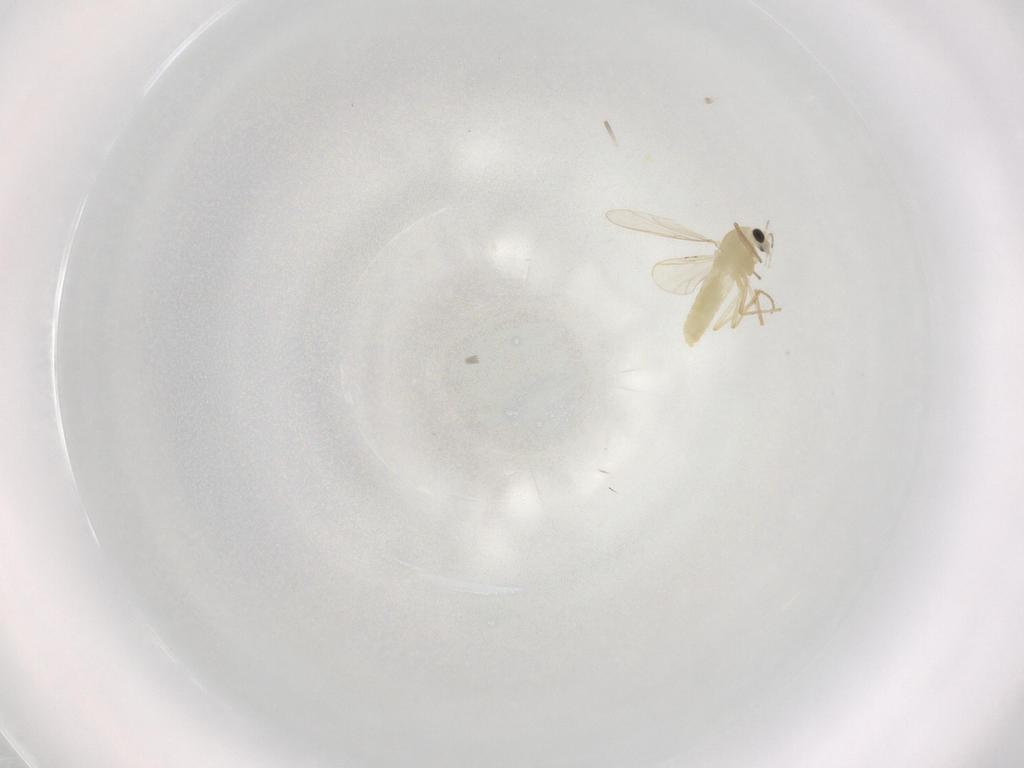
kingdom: Animalia
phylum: Arthropoda
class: Insecta
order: Diptera
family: Chironomidae
